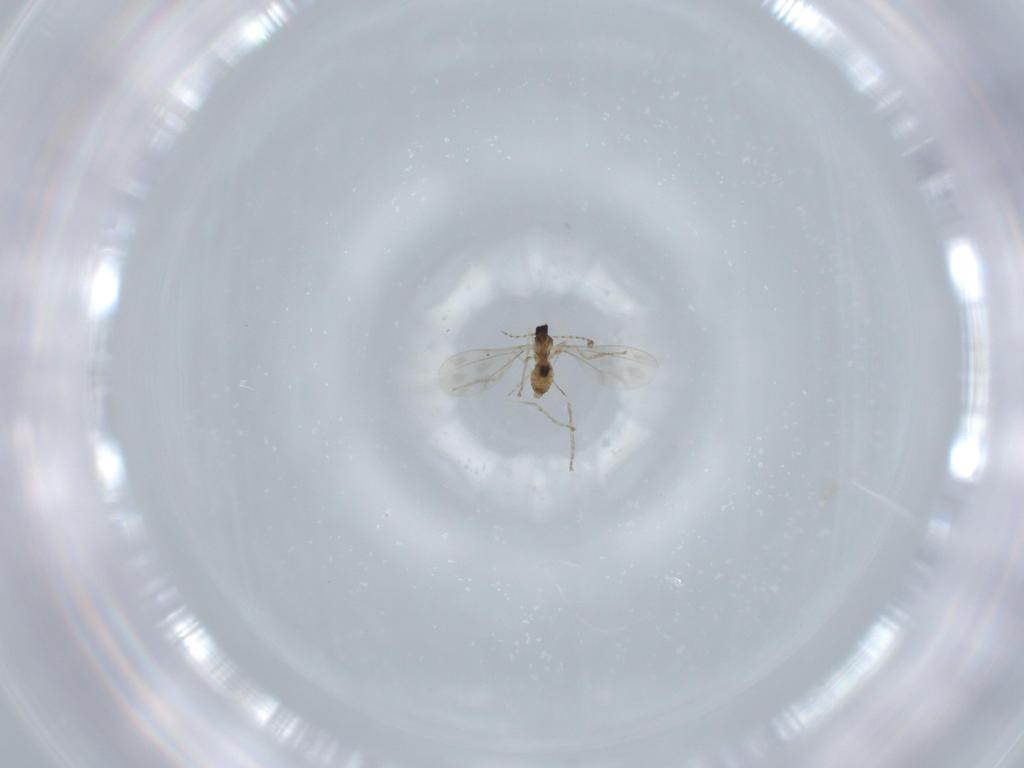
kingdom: Animalia
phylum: Arthropoda
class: Insecta
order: Diptera
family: Cecidomyiidae
